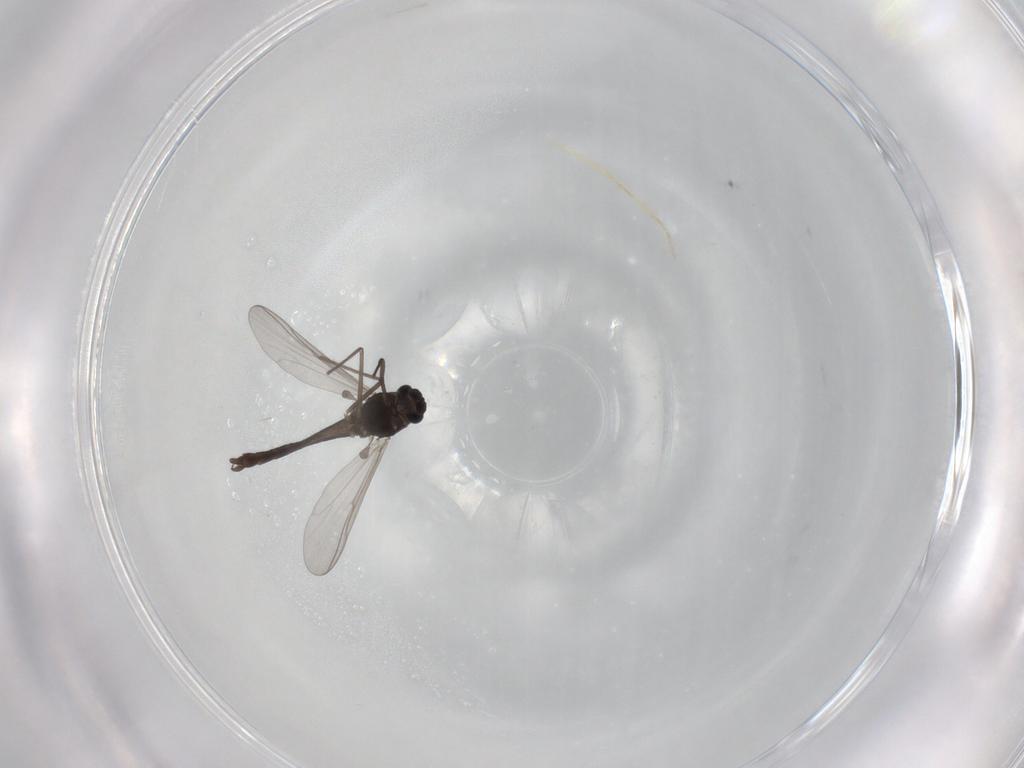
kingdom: Animalia
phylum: Arthropoda
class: Insecta
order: Diptera
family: Chironomidae
